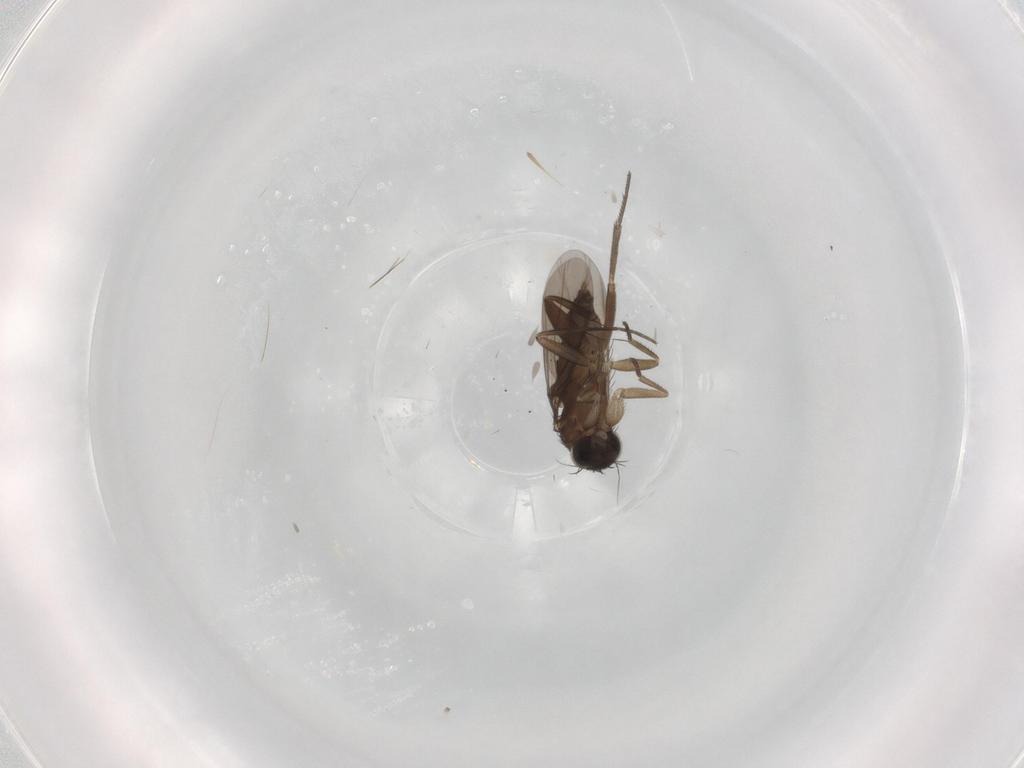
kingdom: Animalia
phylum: Arthropoda
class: Insecta
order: Diptera
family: Phoridae
